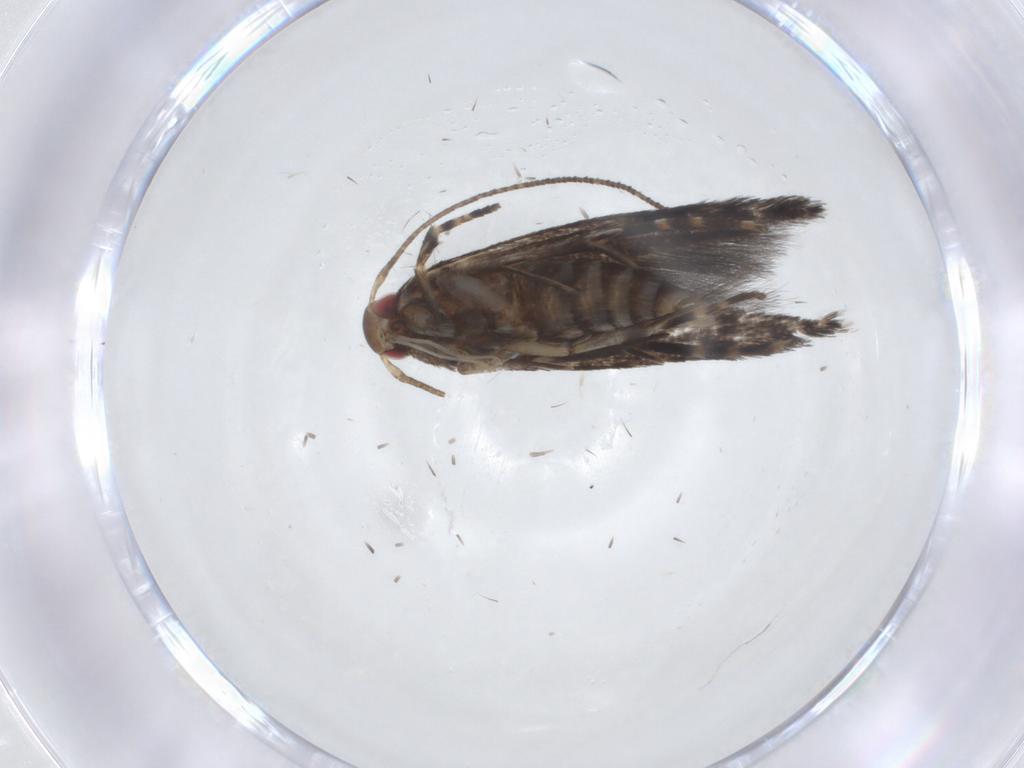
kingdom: Animalia
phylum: Arthropoda
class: Insecta
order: Lepidoptera
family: Cosmopterigidae
